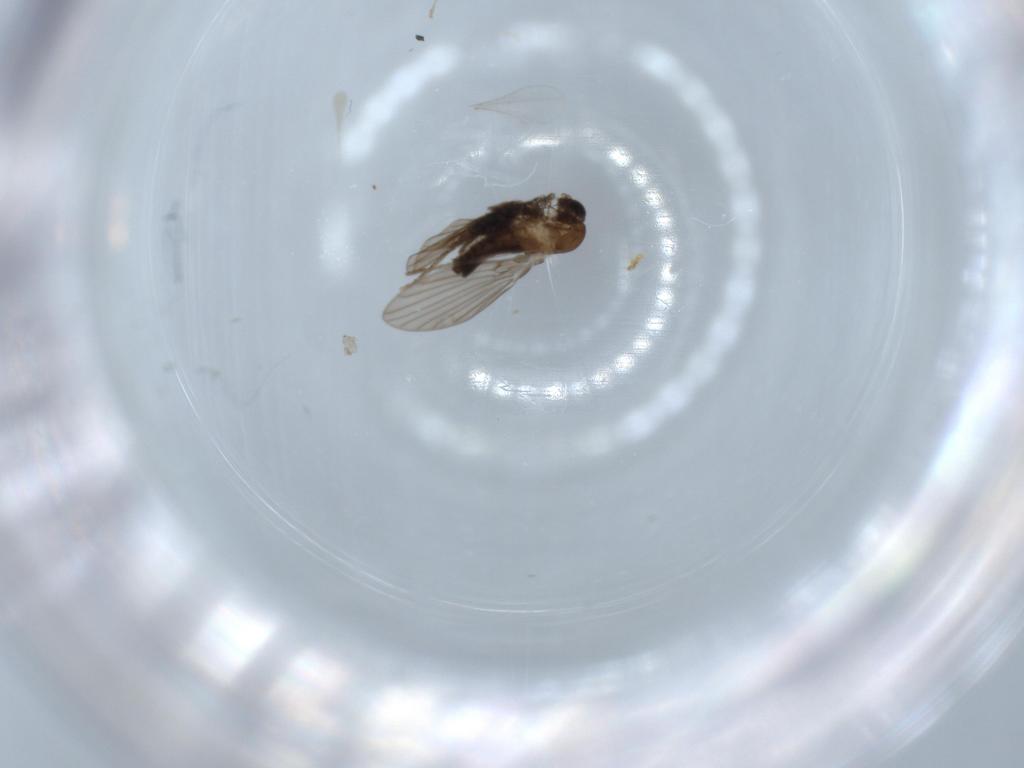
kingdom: Animalia
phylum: Arthropoda
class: Insecta
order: Diptera
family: Psychodidae
